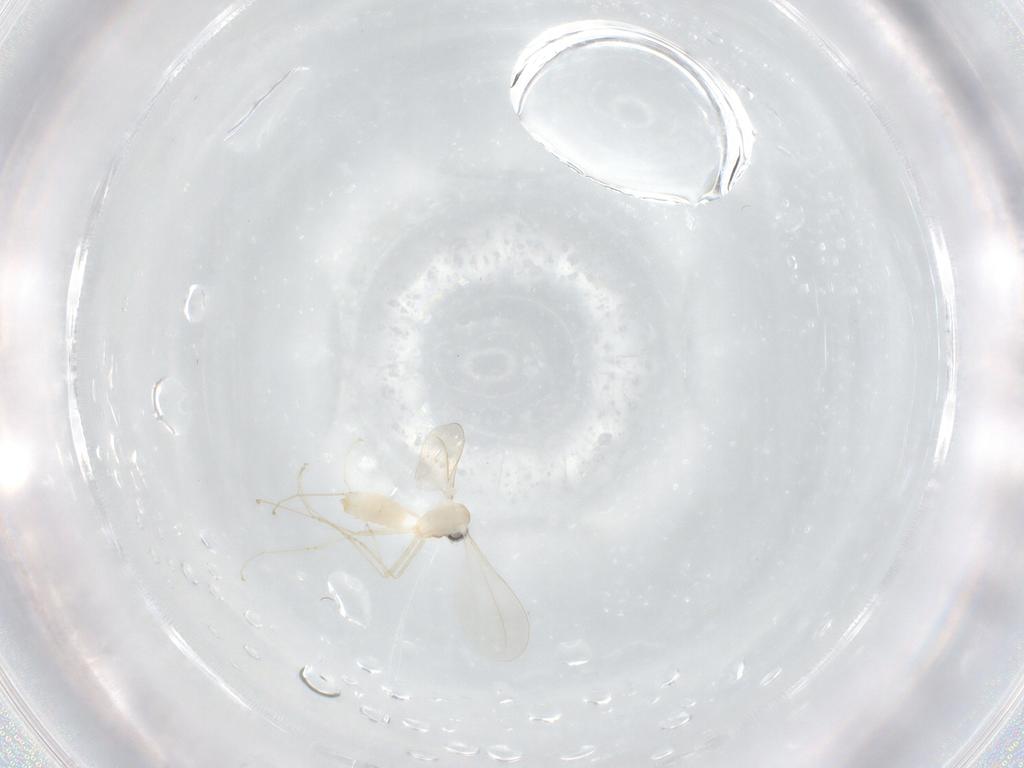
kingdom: Animalia
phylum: Arthropoda
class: Insecta
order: Diptera
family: Cecidomyiidae
